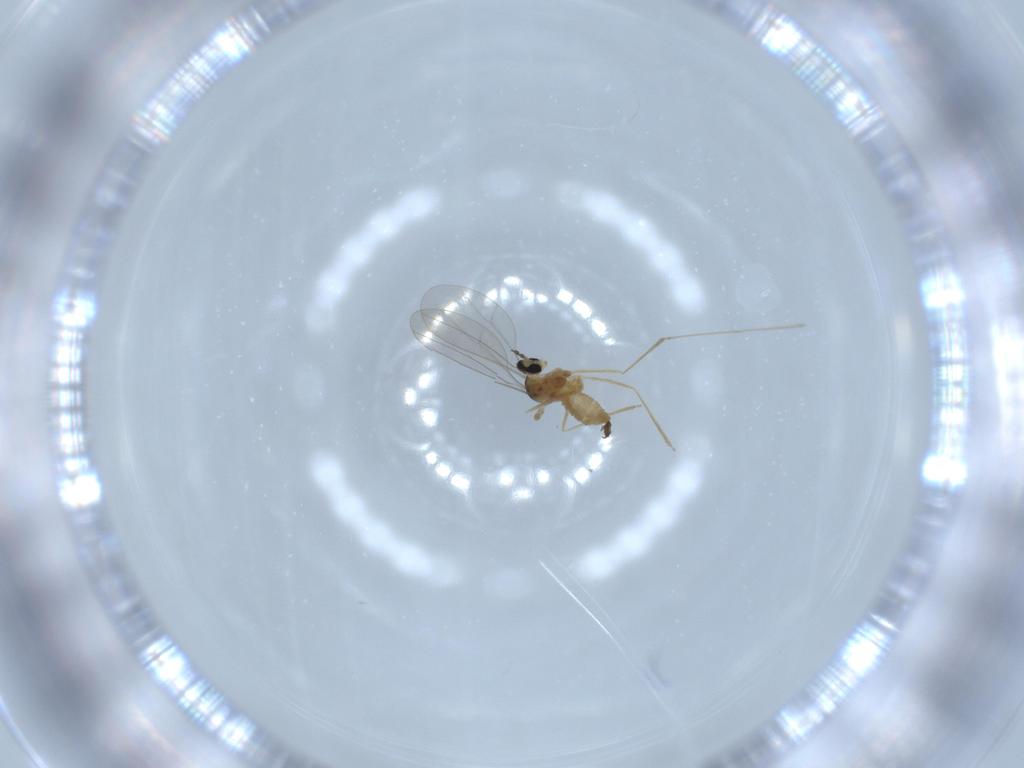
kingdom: Animalia
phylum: Arthropoda
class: Insecta
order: Diptera
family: Cecidomyiidae
